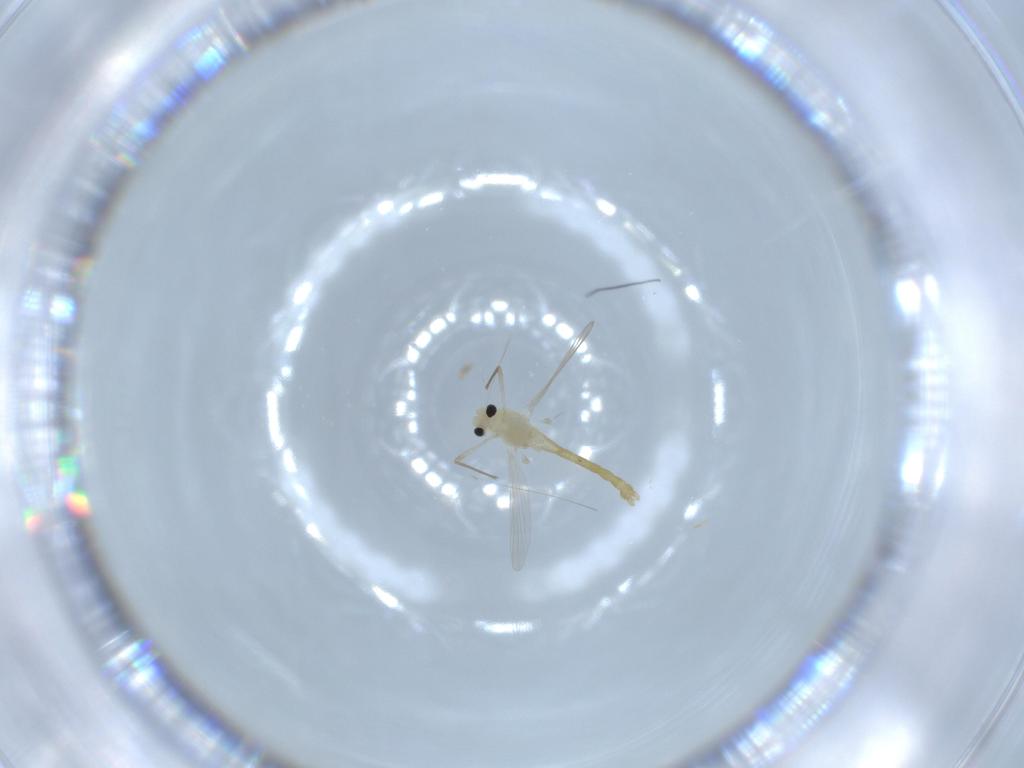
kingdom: Animalia
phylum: Arthropoda
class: Insecta
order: Diptera
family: Chironomidae
